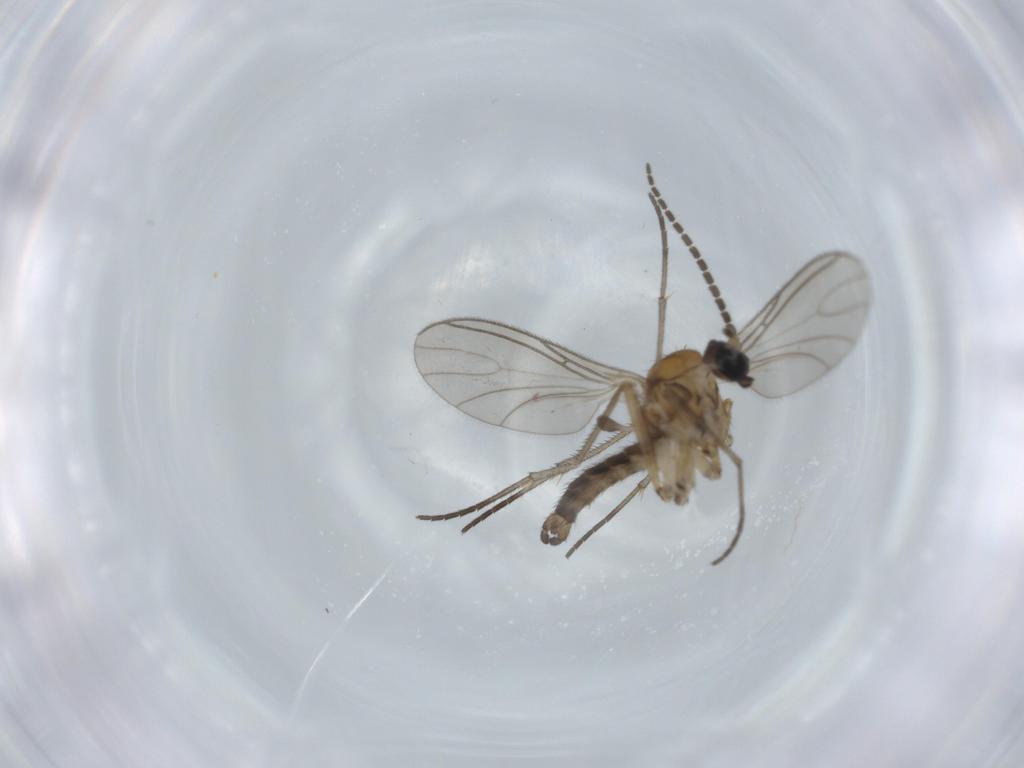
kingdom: Animalia
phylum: Arthropoda
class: Insecta
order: Diptera
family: Sciaridae
